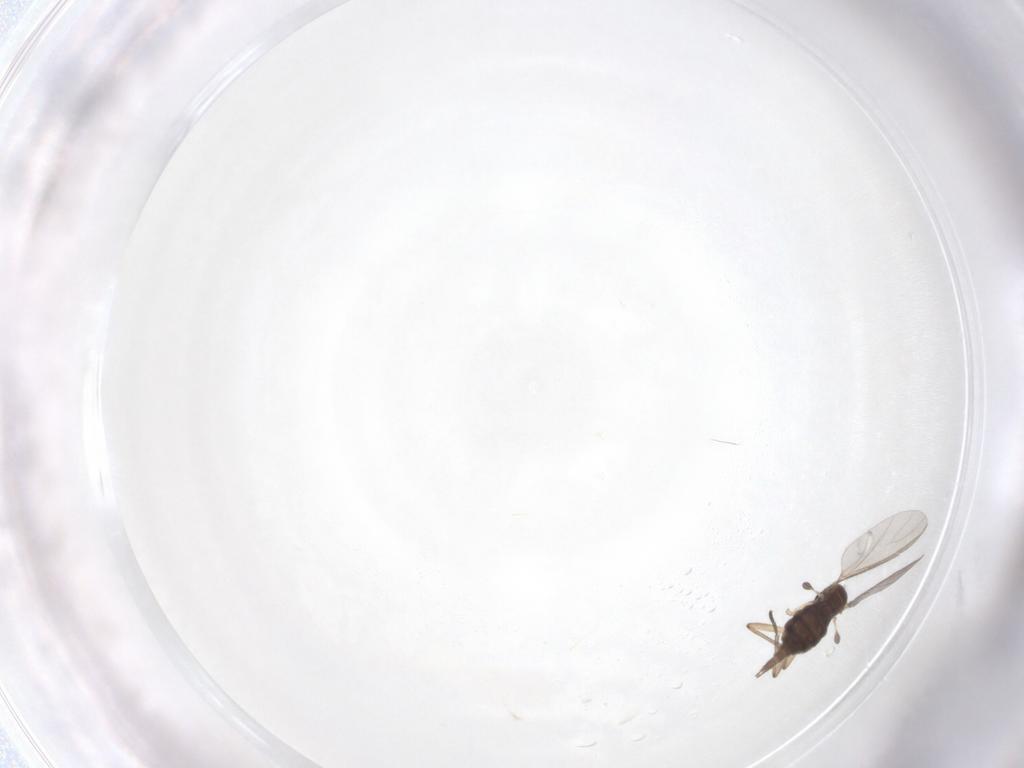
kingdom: Animalia
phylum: Arthropoda
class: Insecta
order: Diptera
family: Sciaridae
